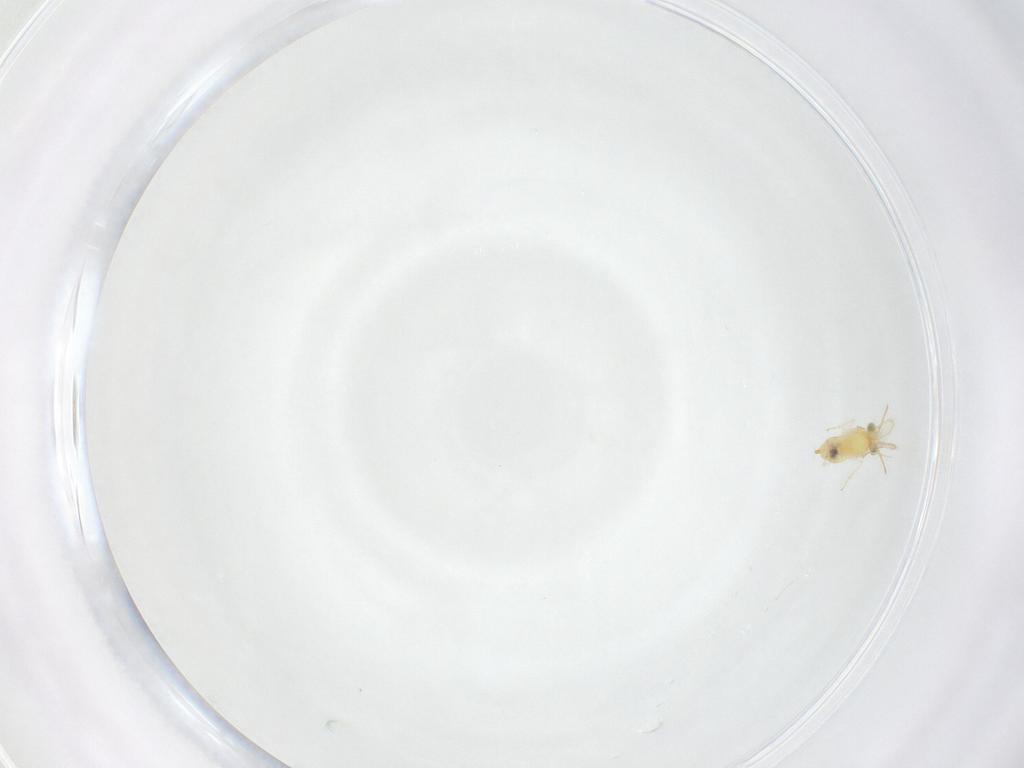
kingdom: Animalia
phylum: Arthropoda
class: Insecta
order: Hymenoptera
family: Aphelinidae
